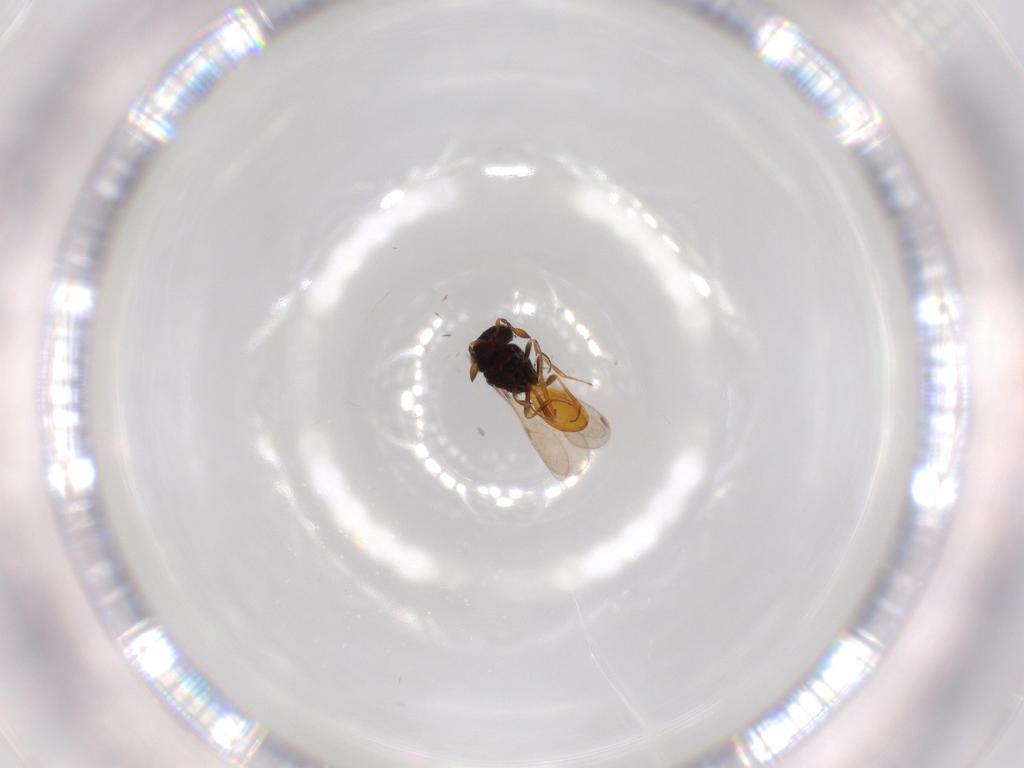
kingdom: Animalia
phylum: Arthropoda
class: Insecta
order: Hymenoptera
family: Scelionidae
